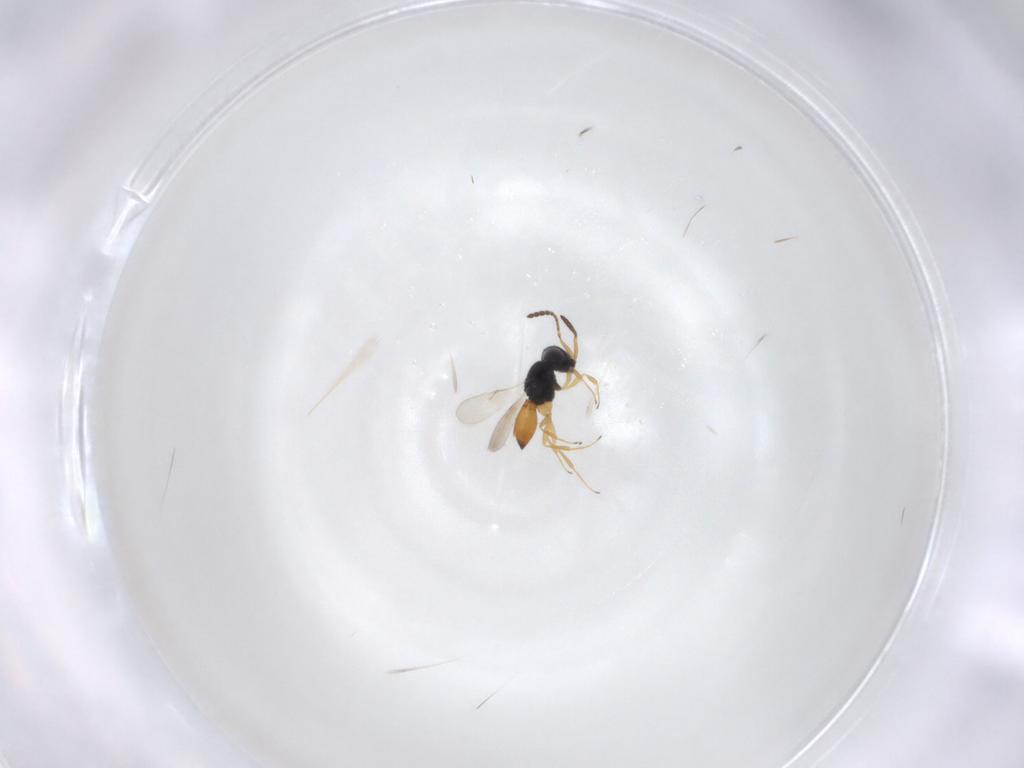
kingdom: Animalia
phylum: Arthropoda
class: Insecta
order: Hymenoptera
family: Scelionidae
